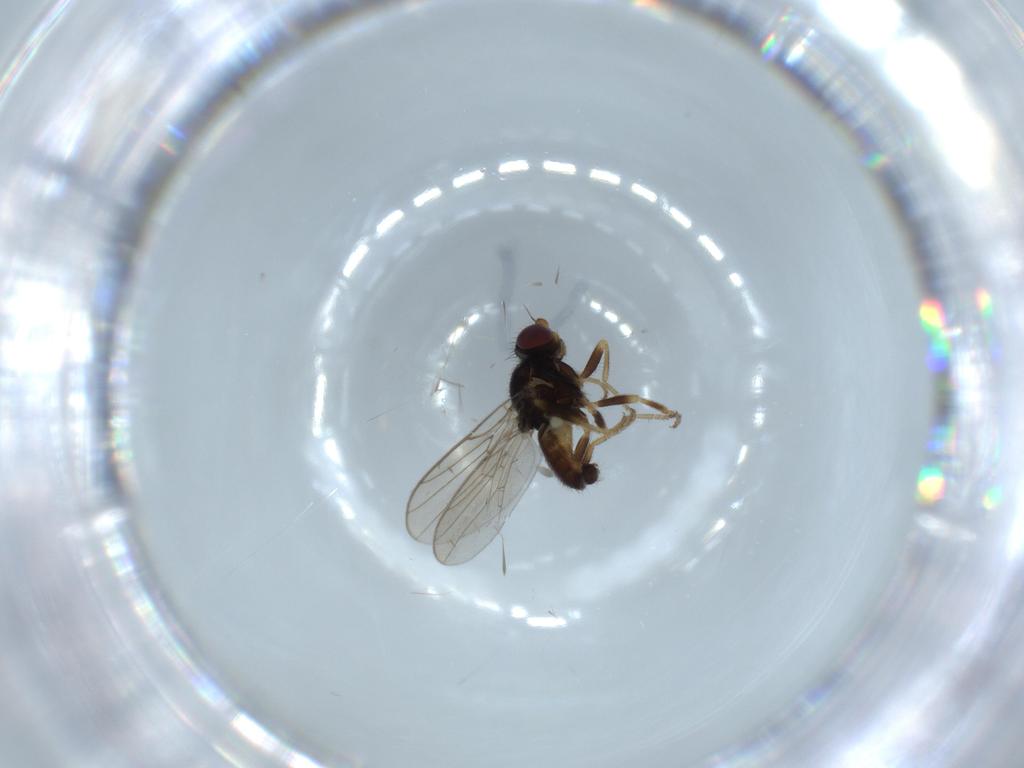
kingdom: Animalia
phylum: Arthropoda
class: Insecta
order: Diptera
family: Chloropidae
